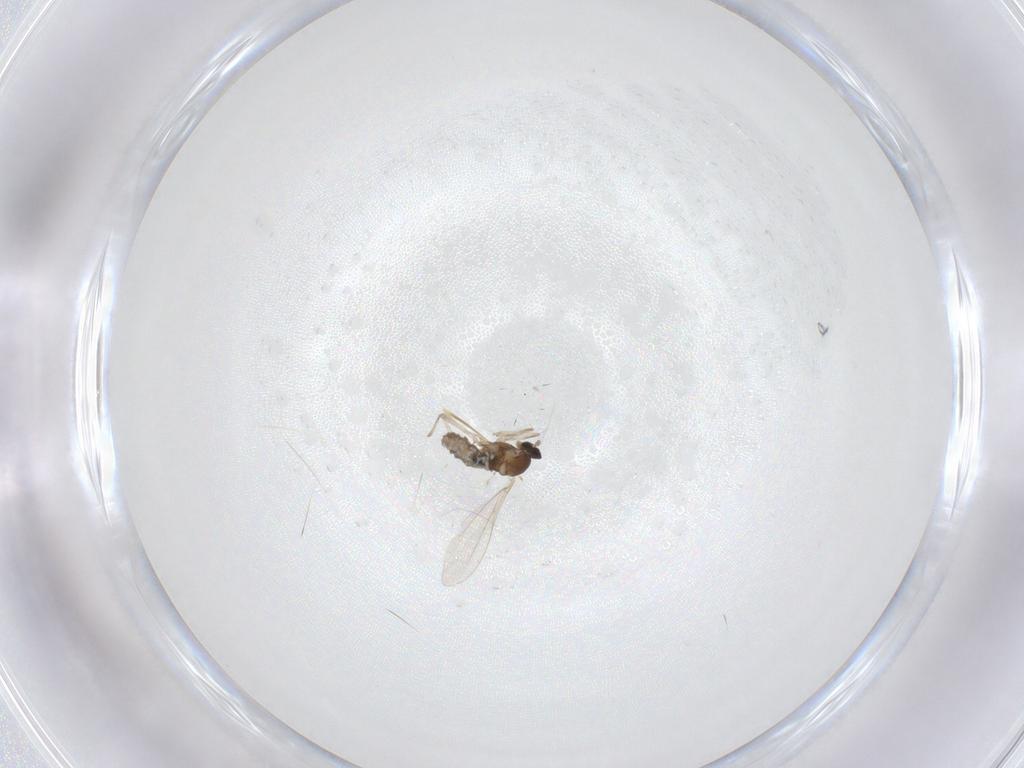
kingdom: Animalia
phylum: Arthropoda
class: Insecta
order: Diptera
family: Cecidomyiidae
